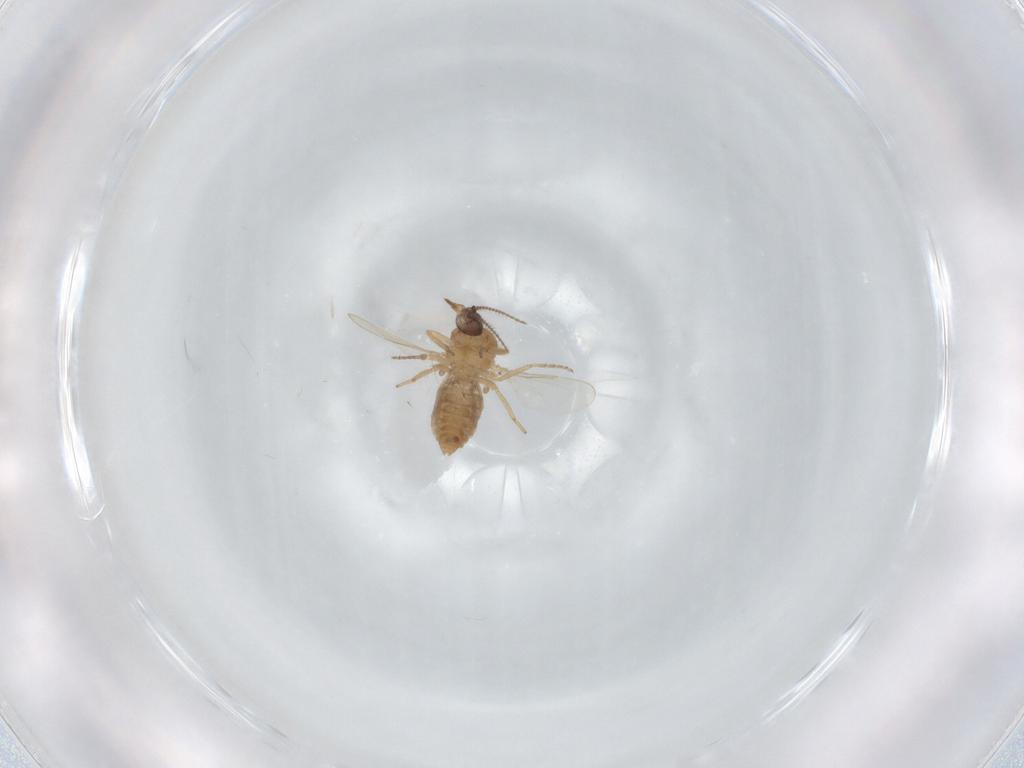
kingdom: Animalia
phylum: Arthropoda
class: Insecta
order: Diptera
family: Ceratopogonidae
